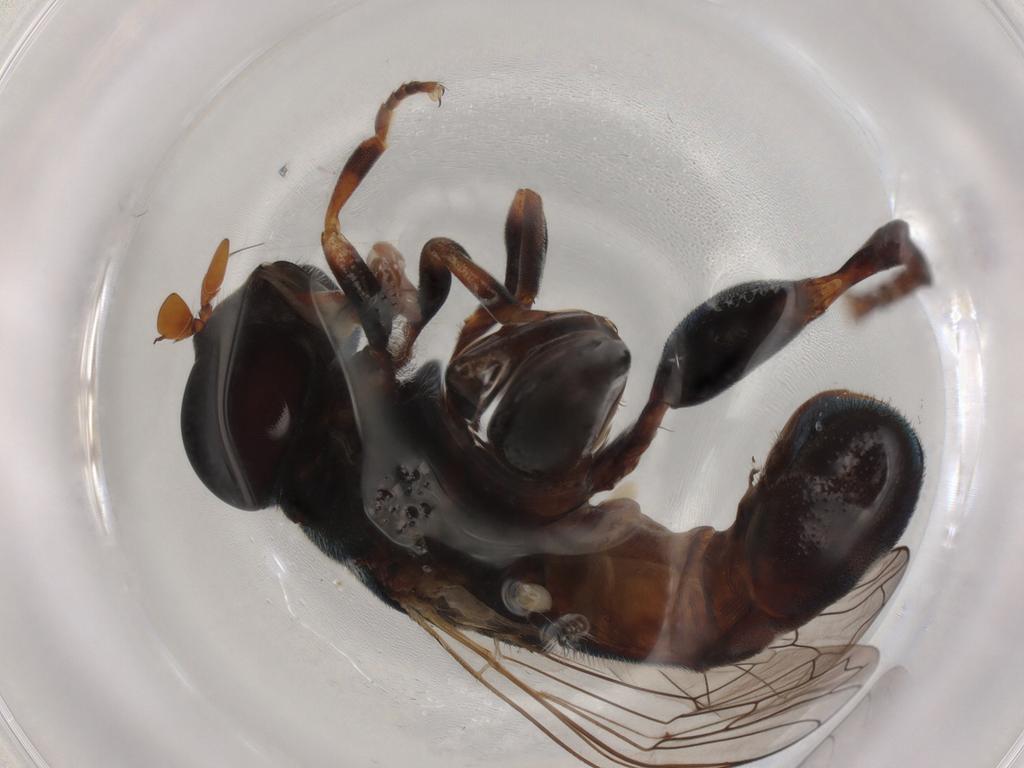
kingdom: Animalia
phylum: Arthropoda
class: Insecta
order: Diptera
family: Syrphidae
